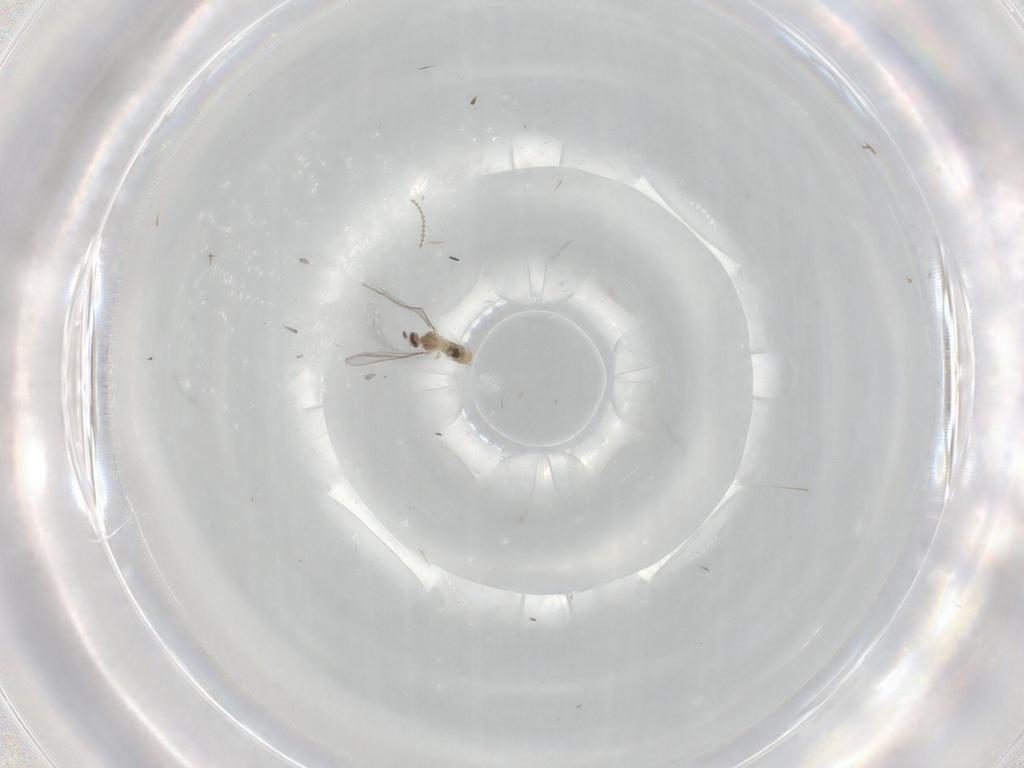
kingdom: Animalia
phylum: Arthropoda
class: Insecta
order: Diptera
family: Cecidomyiidae
